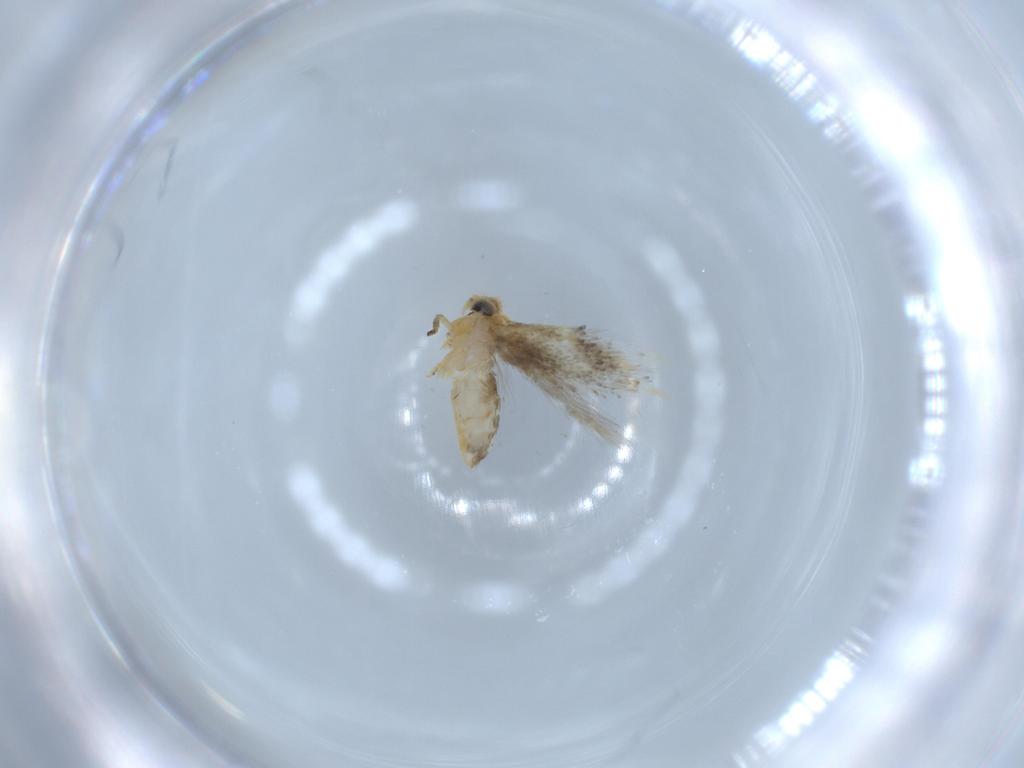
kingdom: Animalia
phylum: Arthropoda
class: Insecta
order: Lepidoptera
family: Nepticulidae
